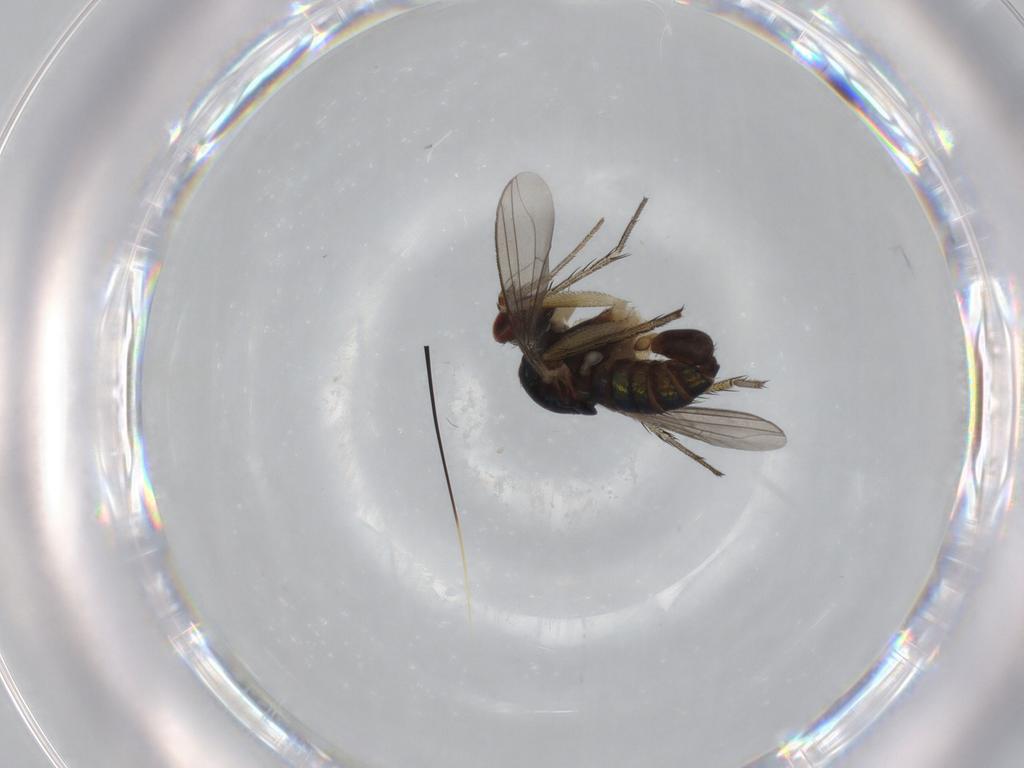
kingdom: Animalia
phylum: Arthropoda
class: Insecta
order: Diptera
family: Dolichopodidae
